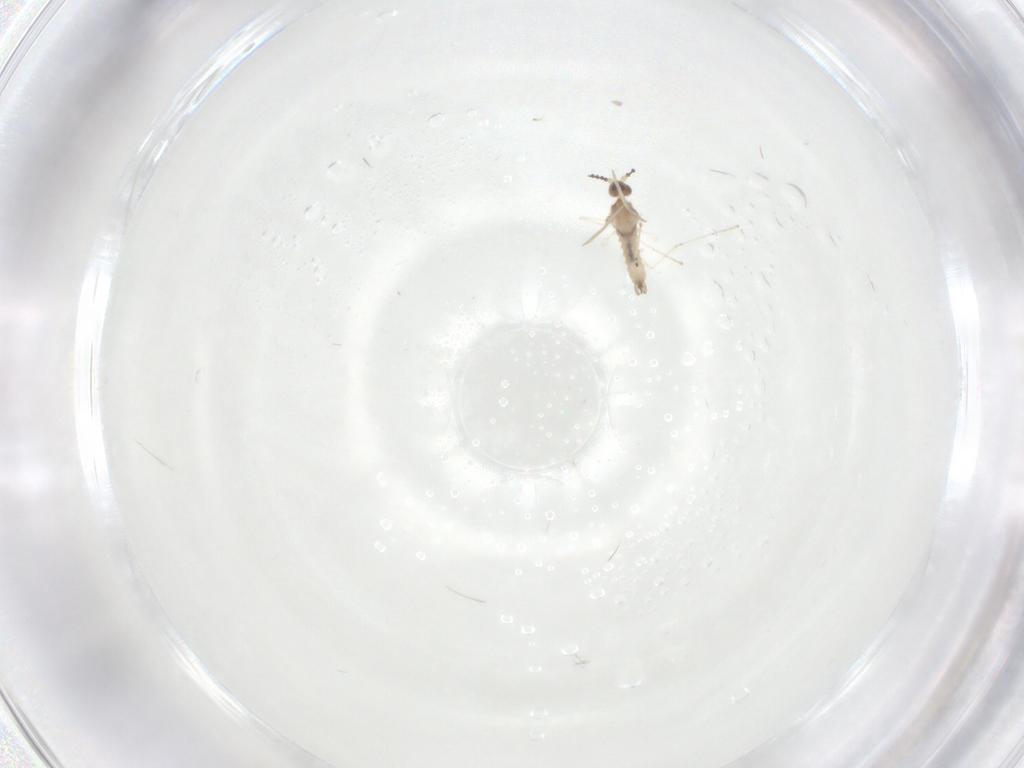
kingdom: Animalia
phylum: Arthropoda
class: Insecta
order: Diptera
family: Cecidomyiidae
